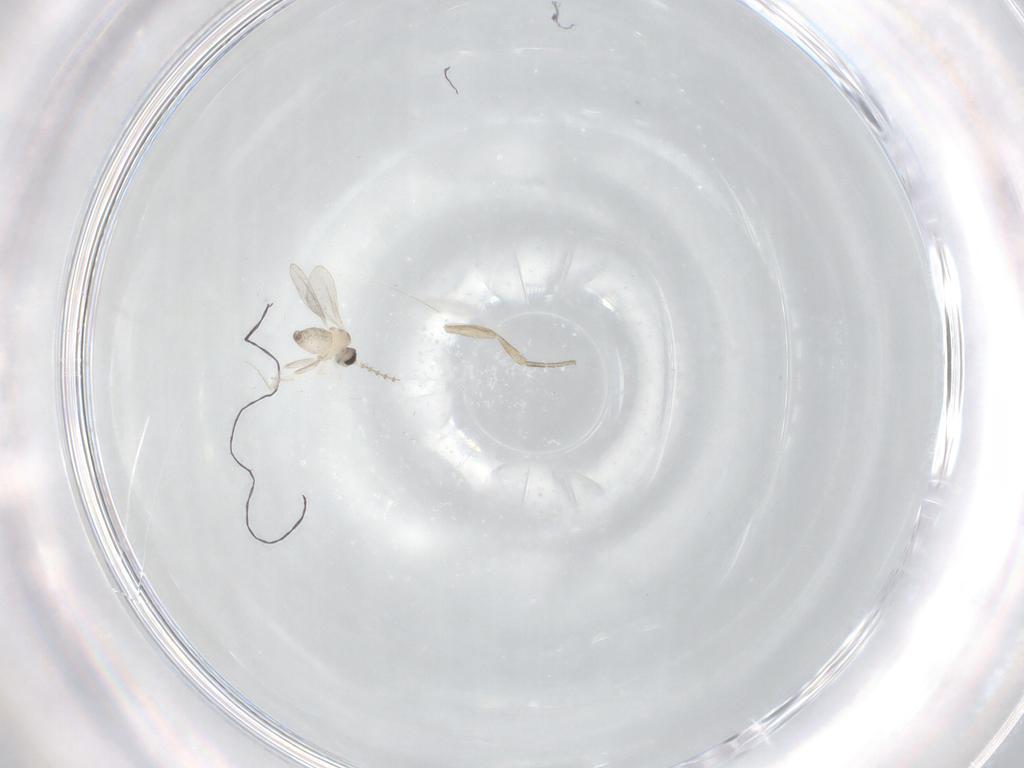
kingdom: Animalia
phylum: Arthropoda
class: Insecta
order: Diptera
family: Cecidomyiidae
